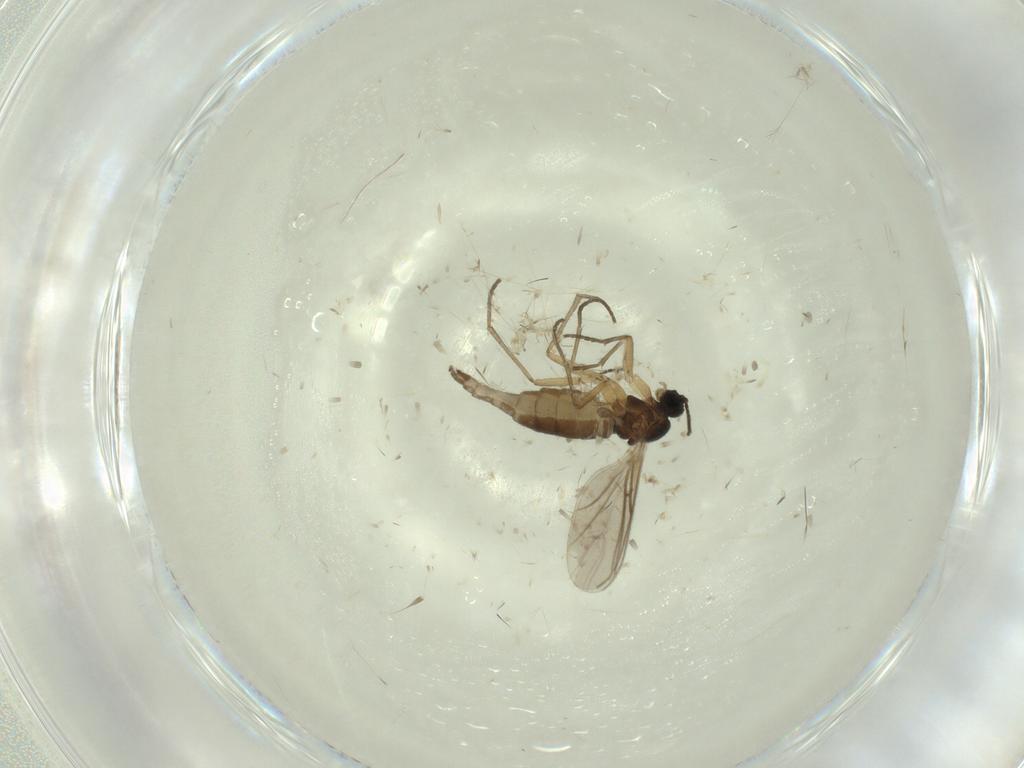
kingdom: Animalia
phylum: Arthropoda
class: Insecta
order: Diptera
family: Sciaridae
